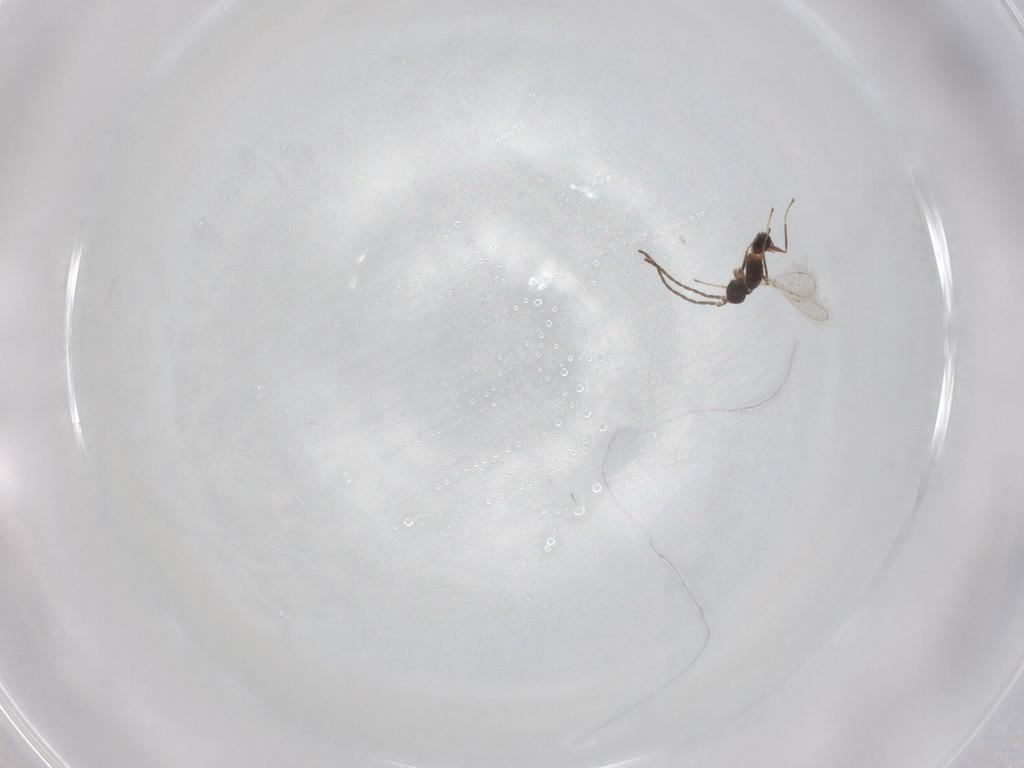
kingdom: Animalia
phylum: Arthropoda
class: Insecta
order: Hymenoptera
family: Mymaridae
